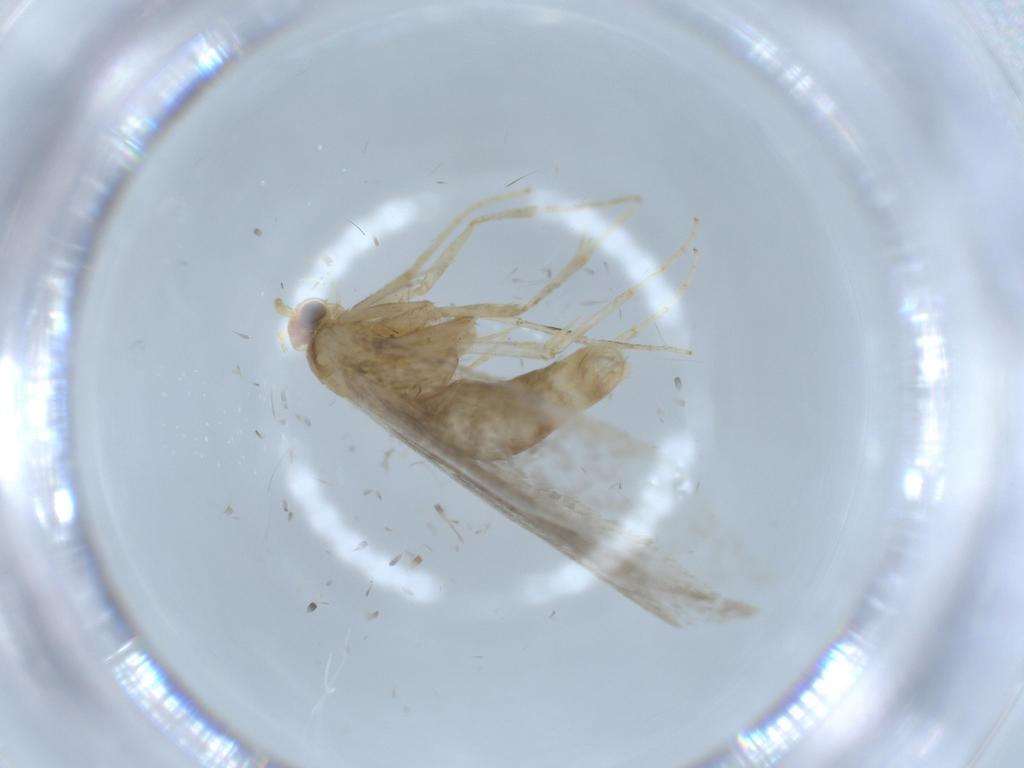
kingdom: Animalia
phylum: Arthropoda
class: Insecta
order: Lepidoptera
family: Argyresthiidae
